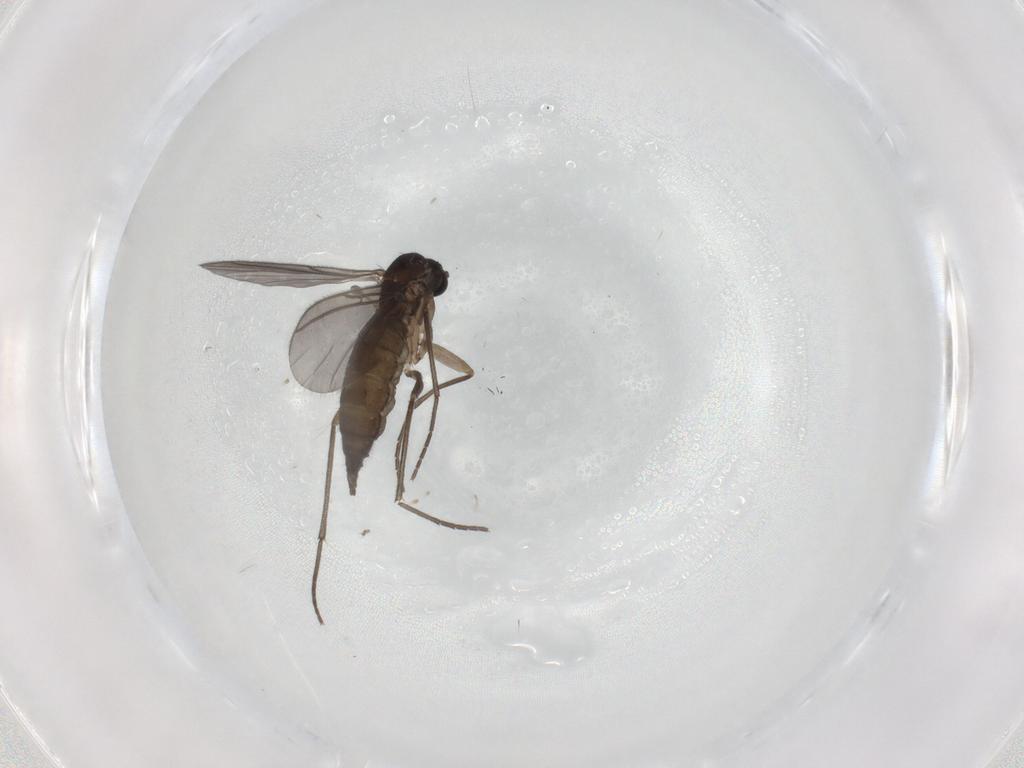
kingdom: Animalia
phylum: Arthropoda
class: Insecta
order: Diptera
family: Sciaridae
